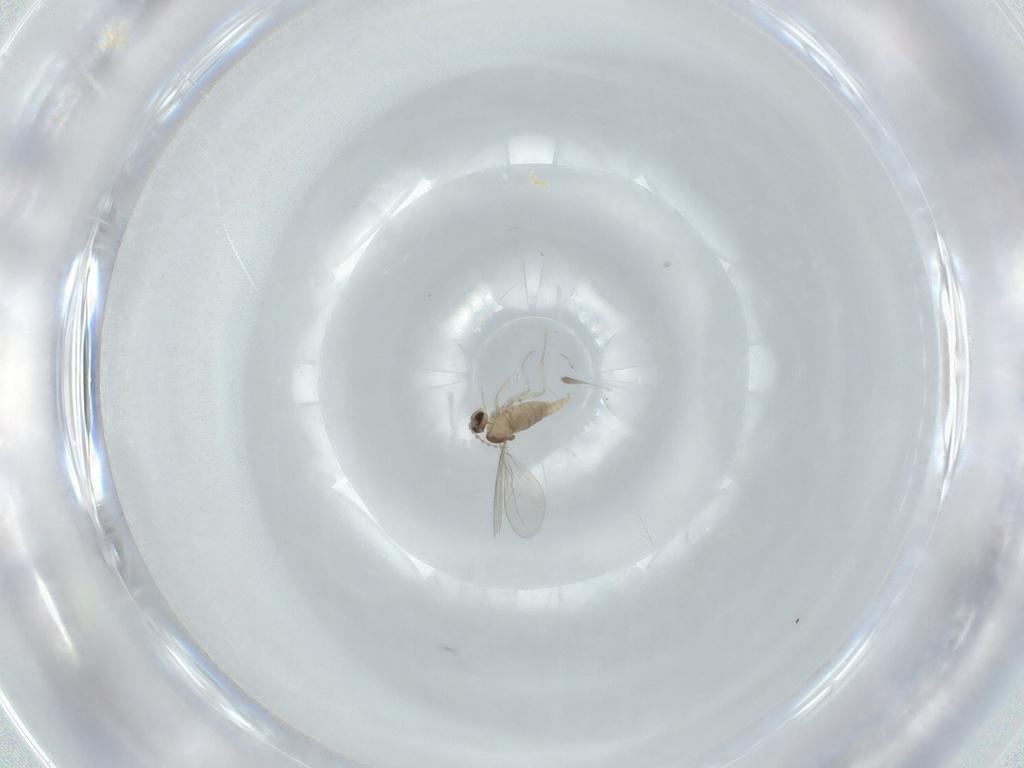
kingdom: Animalia
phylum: Arthropoda
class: Insecta
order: Diptera
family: Cecidomyiidae
